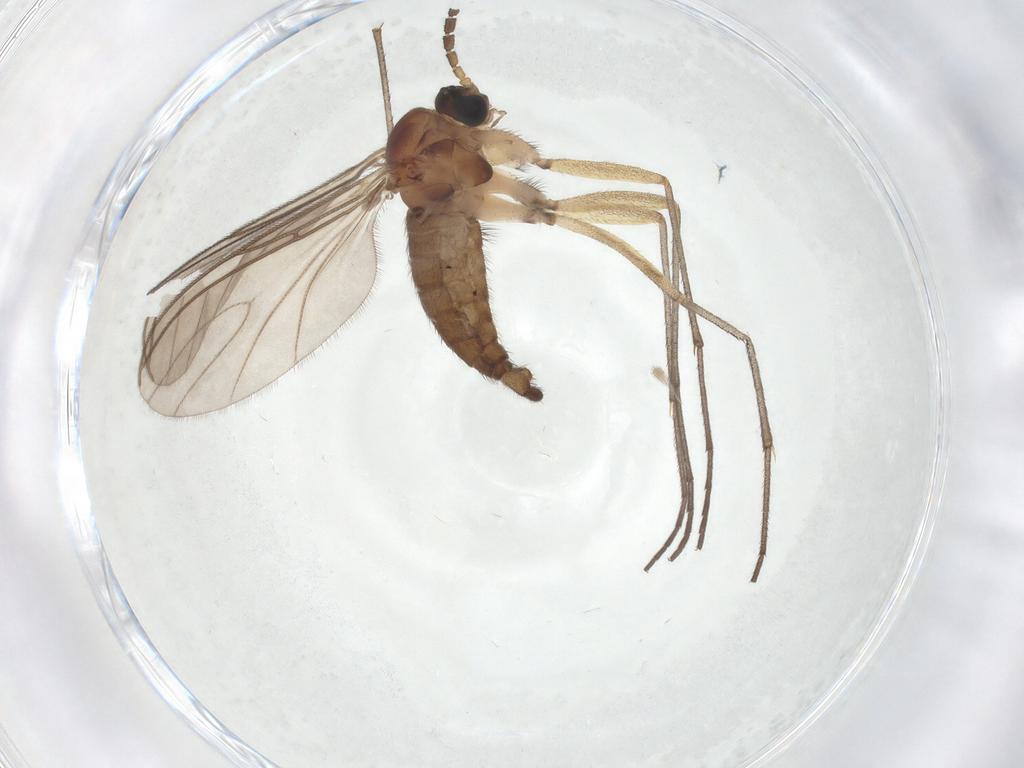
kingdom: Animalia
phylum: Arthropoda
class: Insecta
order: Diptera
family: Sciaridae
